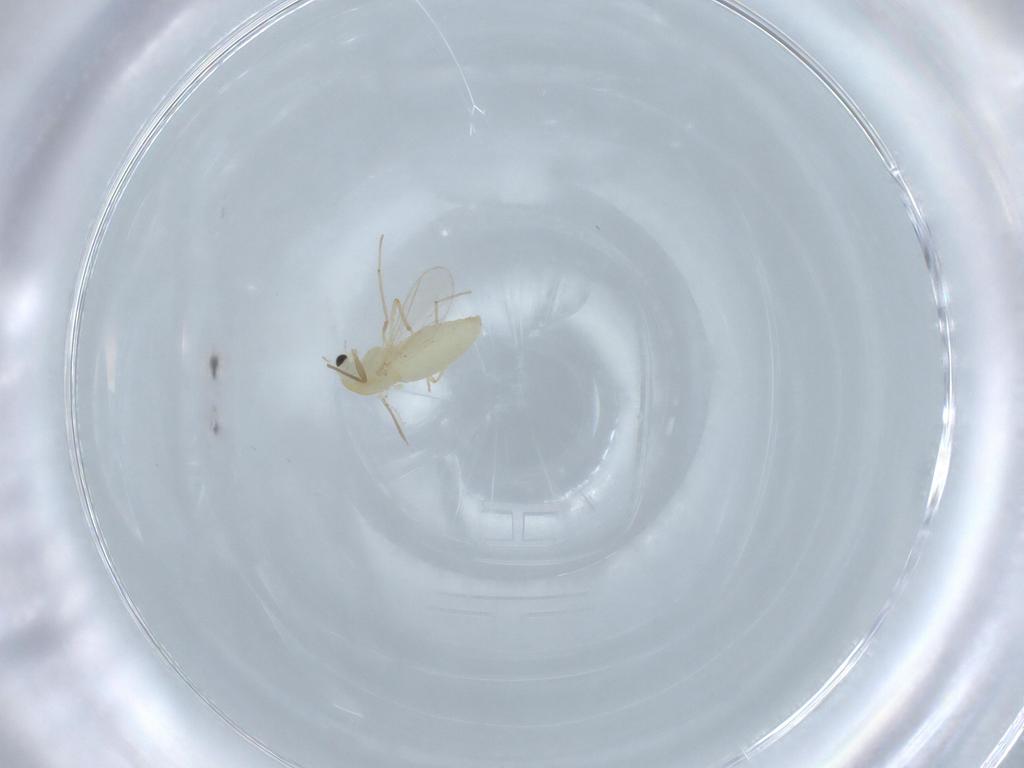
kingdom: Animalia
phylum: Arthropoda
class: Insecta
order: Diptera
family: Chironomidae
